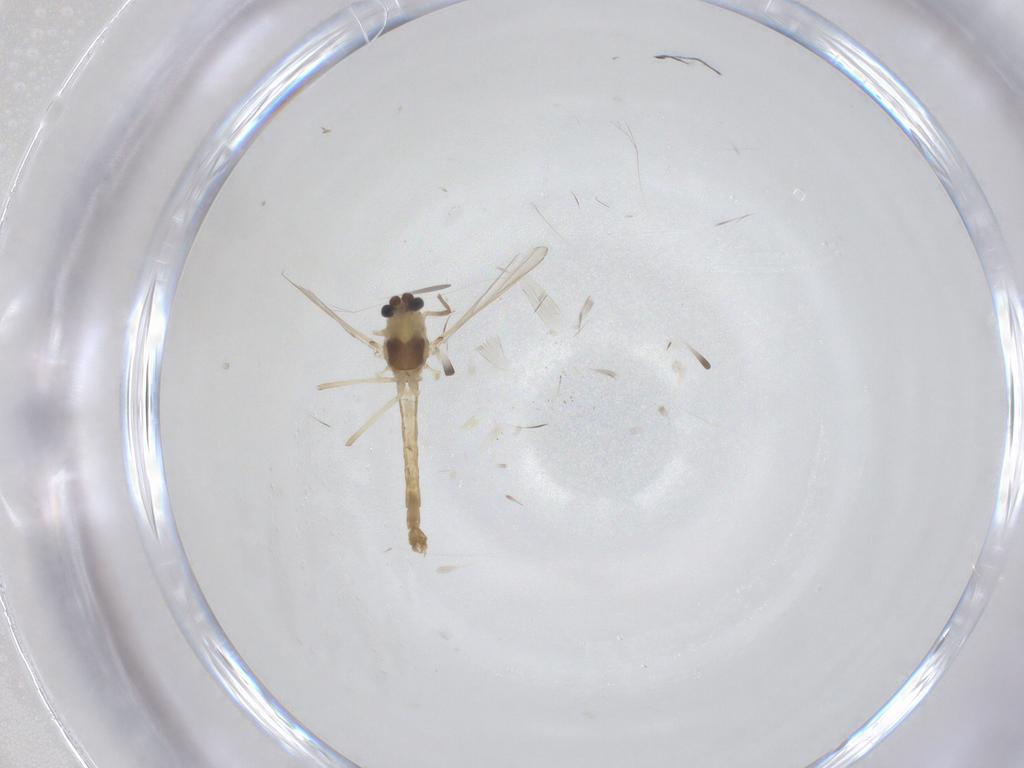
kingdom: Animalia
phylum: Arthropoda
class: Insecta
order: Diptera
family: Chironomidae
